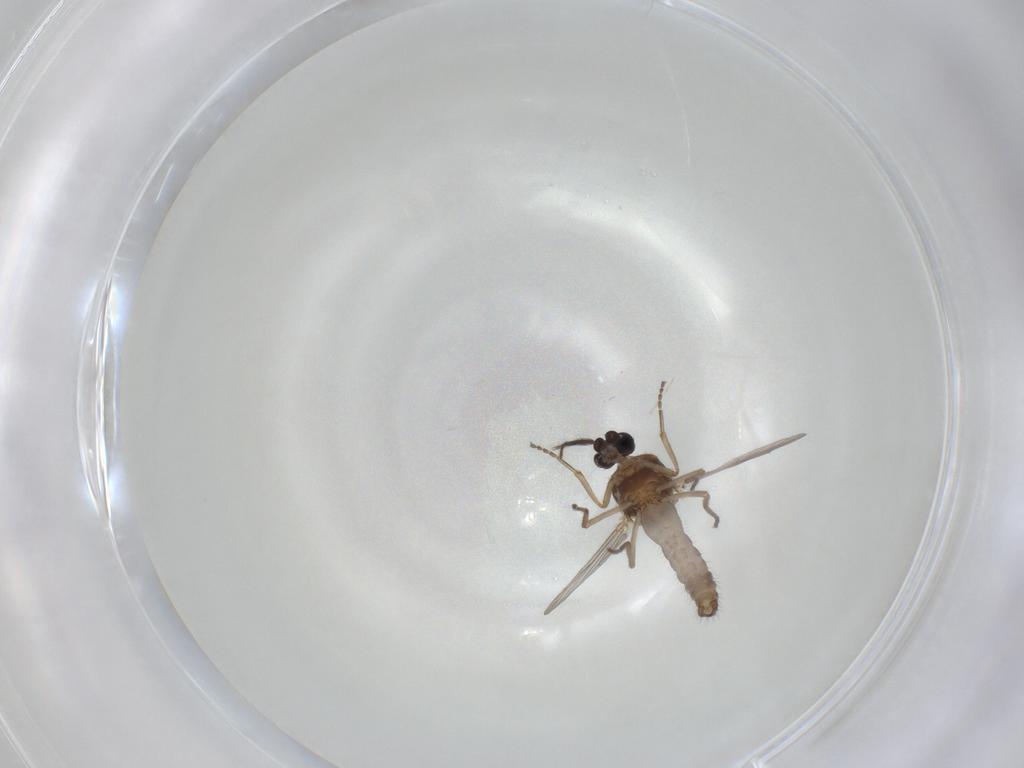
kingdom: Animalia
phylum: Arthropoda
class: Insecta
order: Diptera
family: Ceratopogonidae
